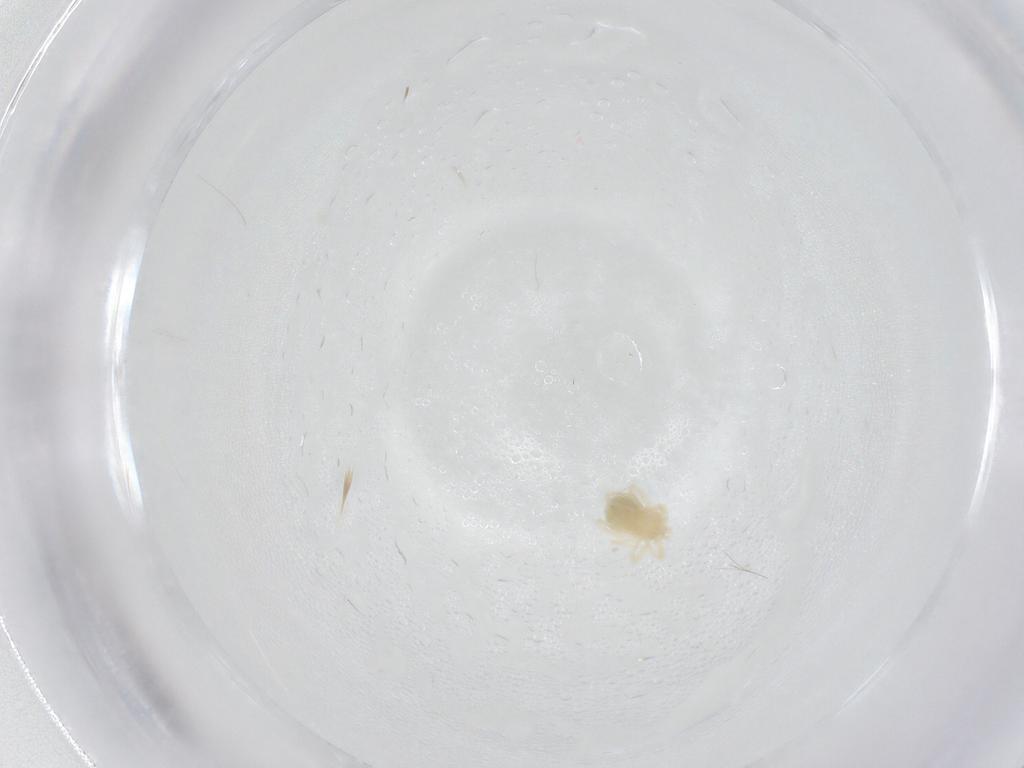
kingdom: Animalia
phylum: Arthropoda
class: Arachnida
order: Trombidiformes
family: Anystidae
